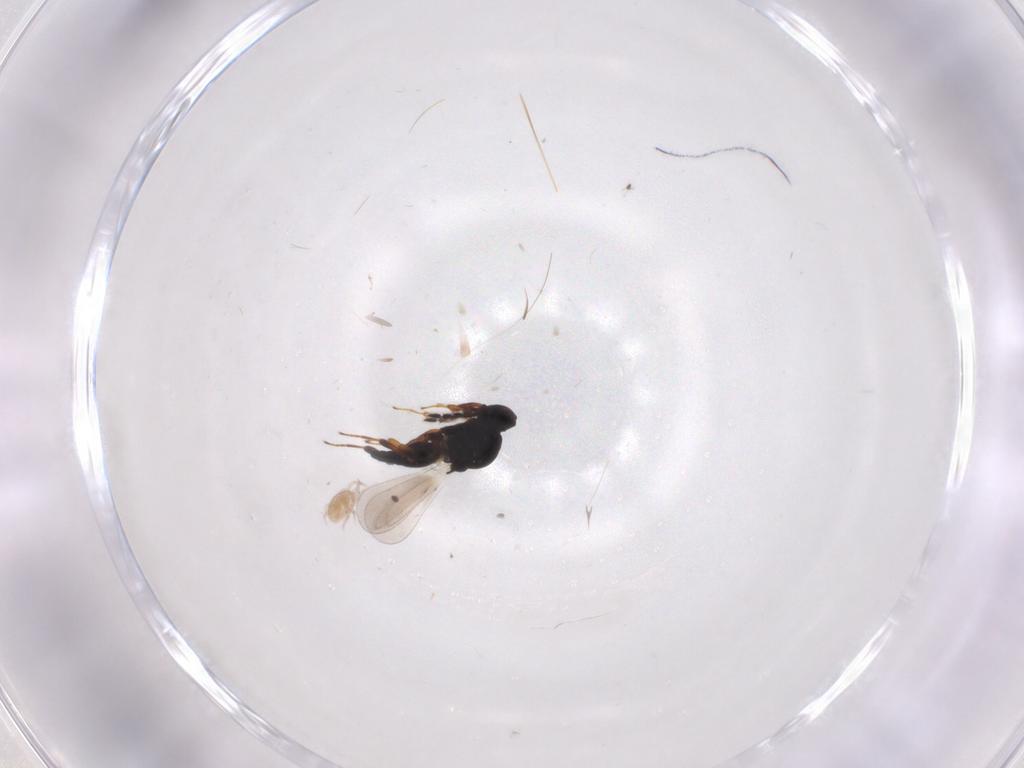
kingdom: Animalia
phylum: Arthropoda
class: Insecta
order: Hymenoptera
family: Platygastridae
